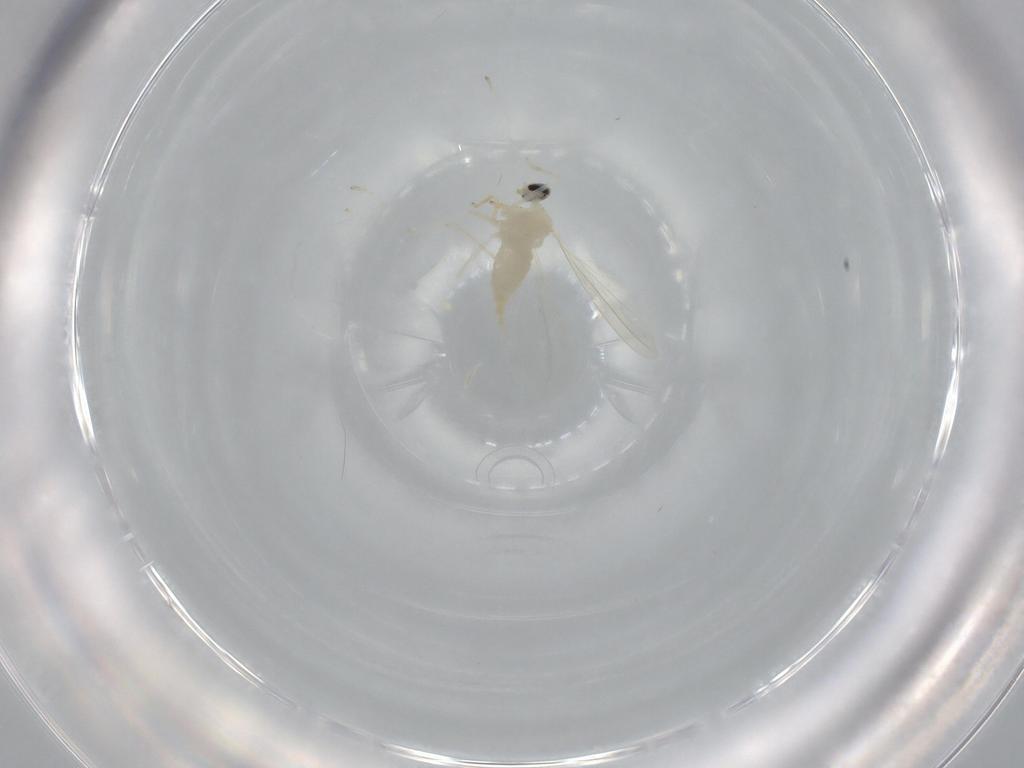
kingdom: Animalia
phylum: Arthropoda
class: Insecta
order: Diptera
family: Cecidomyiidae
